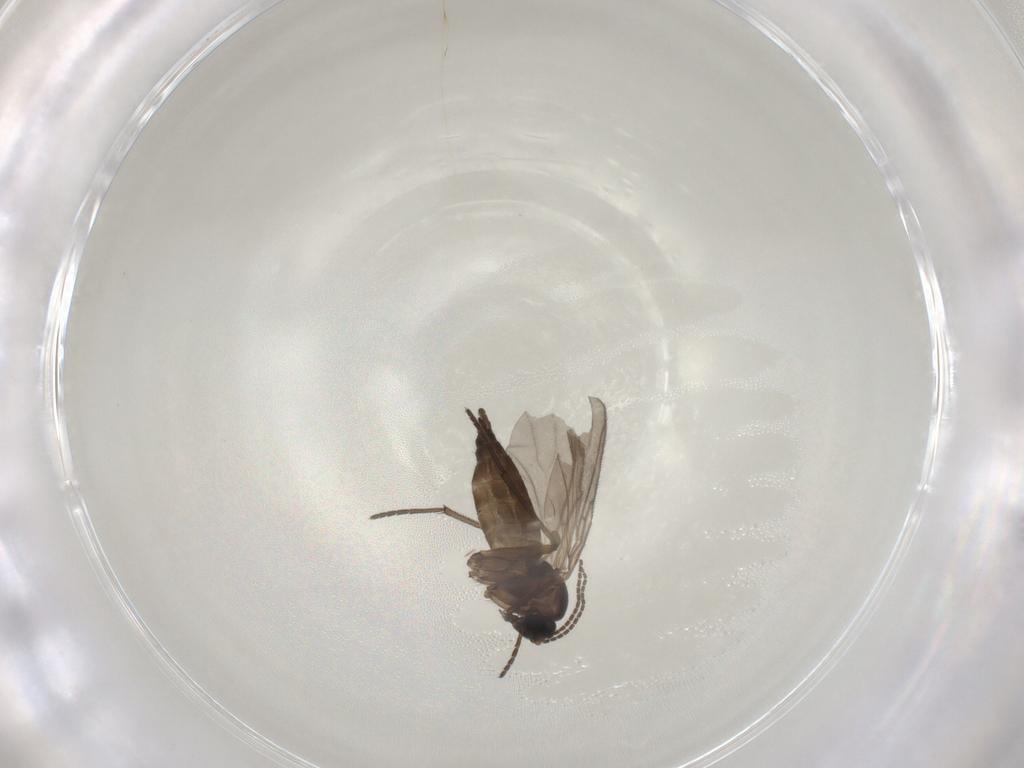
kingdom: Animalia
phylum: Arthropoda
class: Insecta
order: Diptera
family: Sciaridae
